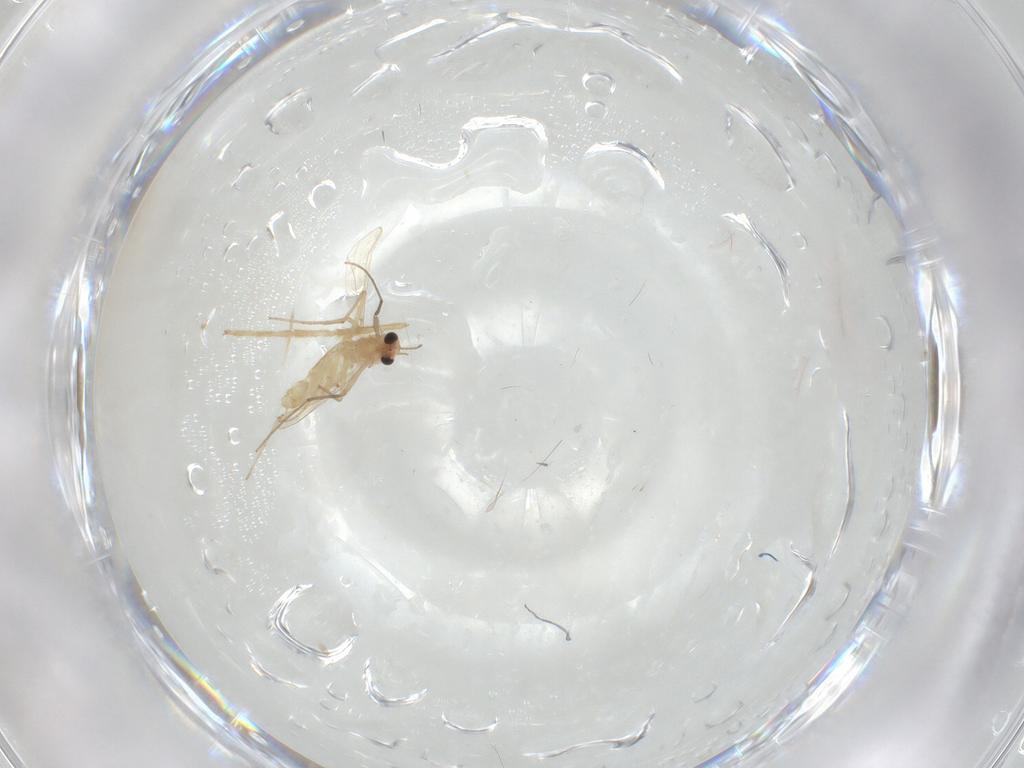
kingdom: Animalia
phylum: Arthropoda
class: Insecta
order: Diptera
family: Chironomidae
